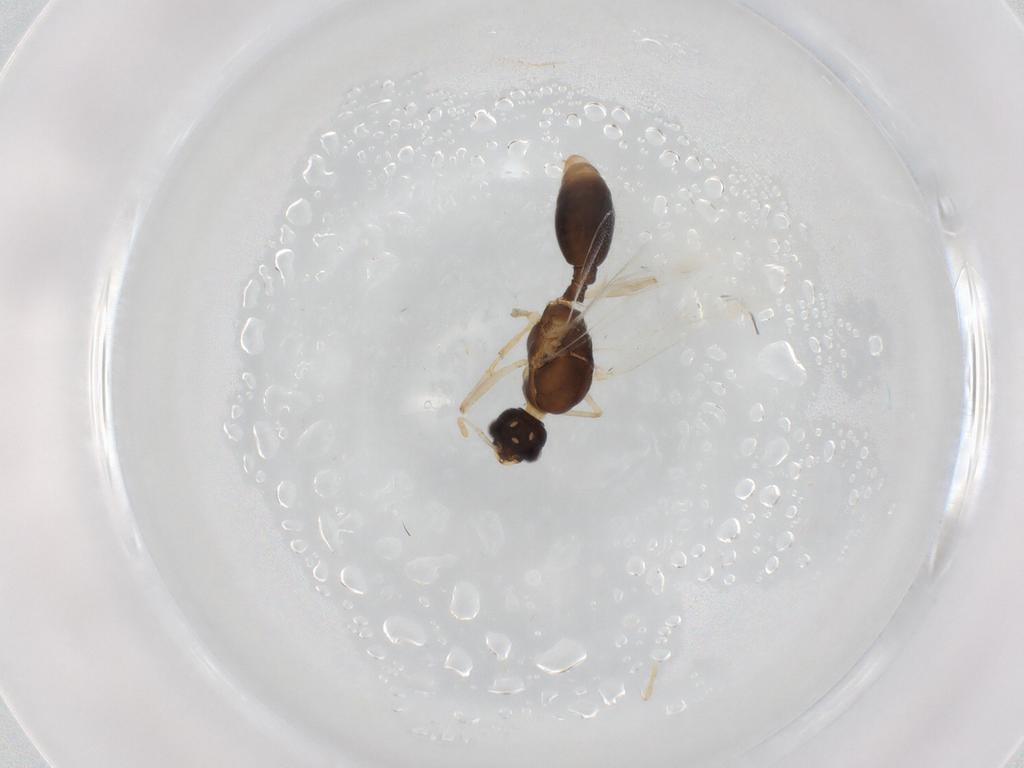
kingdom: Animalia
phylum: Arthropoda
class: Insecta
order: Hymenoptera
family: Formicidae
